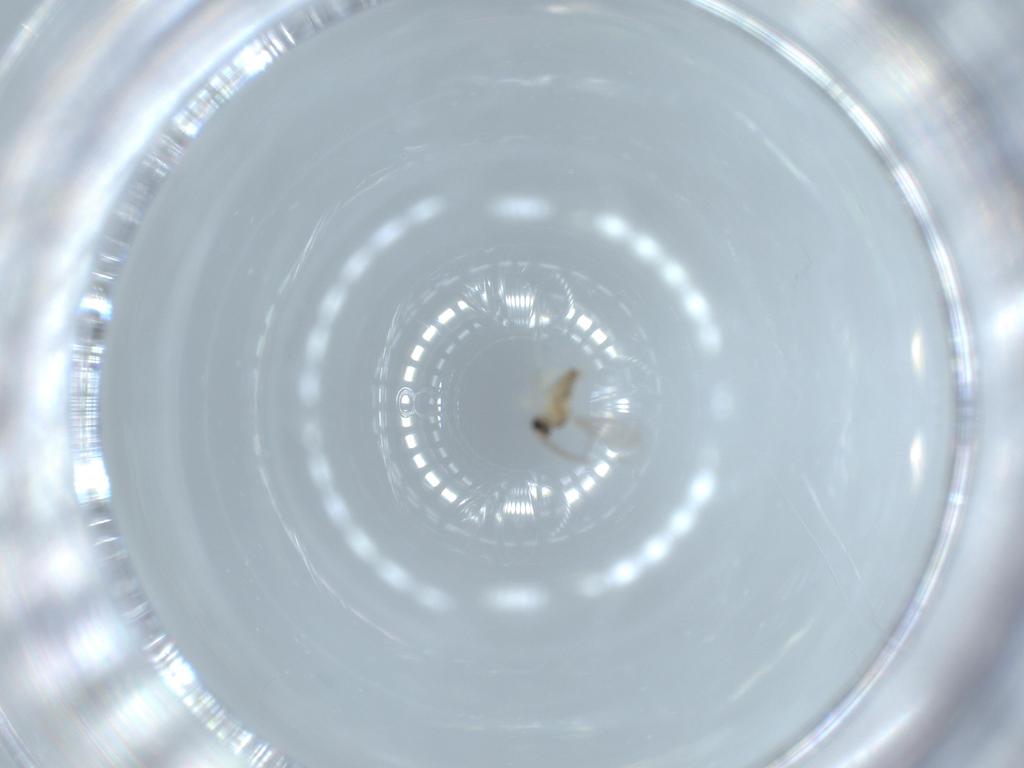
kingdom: Animalia
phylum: Arthropoda
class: Insecta
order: Diptera
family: Cecidomyiidae
